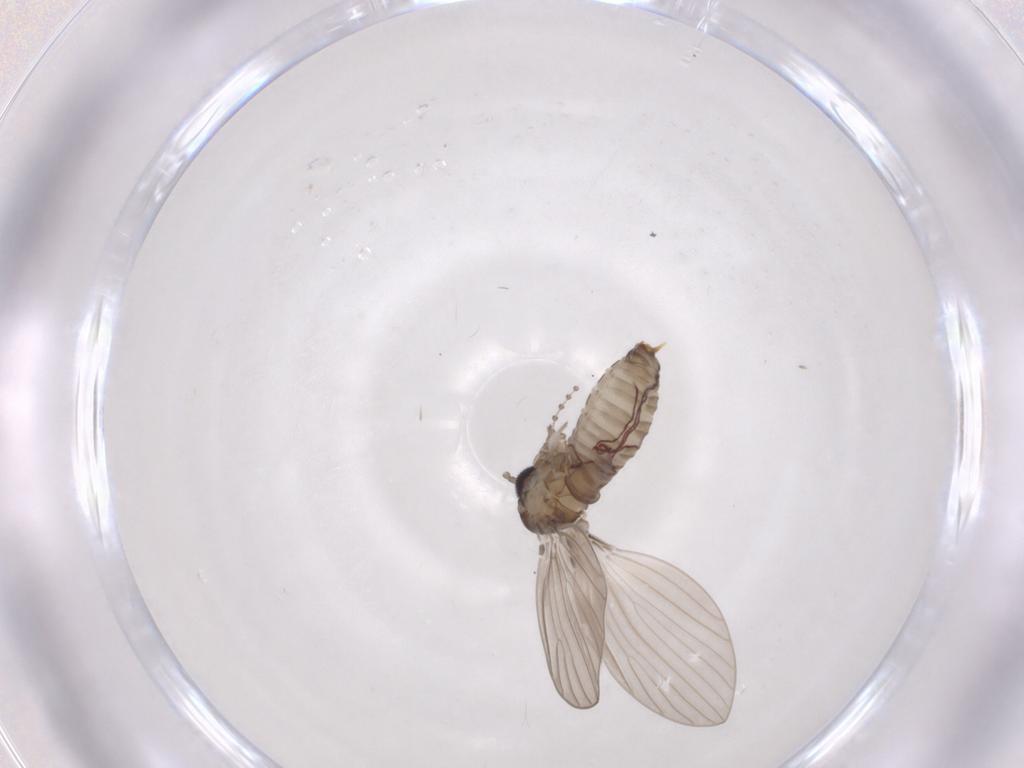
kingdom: Animalia
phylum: Arthropoda
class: Insecta
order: Diptera
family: Psychodidae
